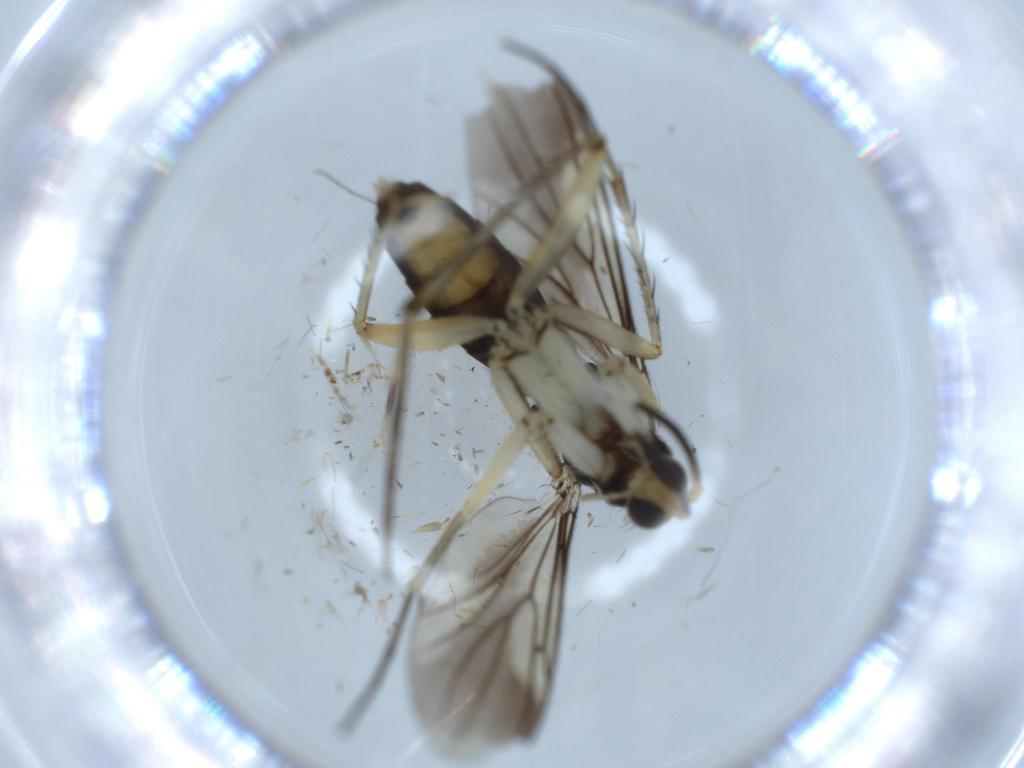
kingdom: Animalia
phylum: Arthropoda
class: Insecta
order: Diptera
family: Mycetophilidae
